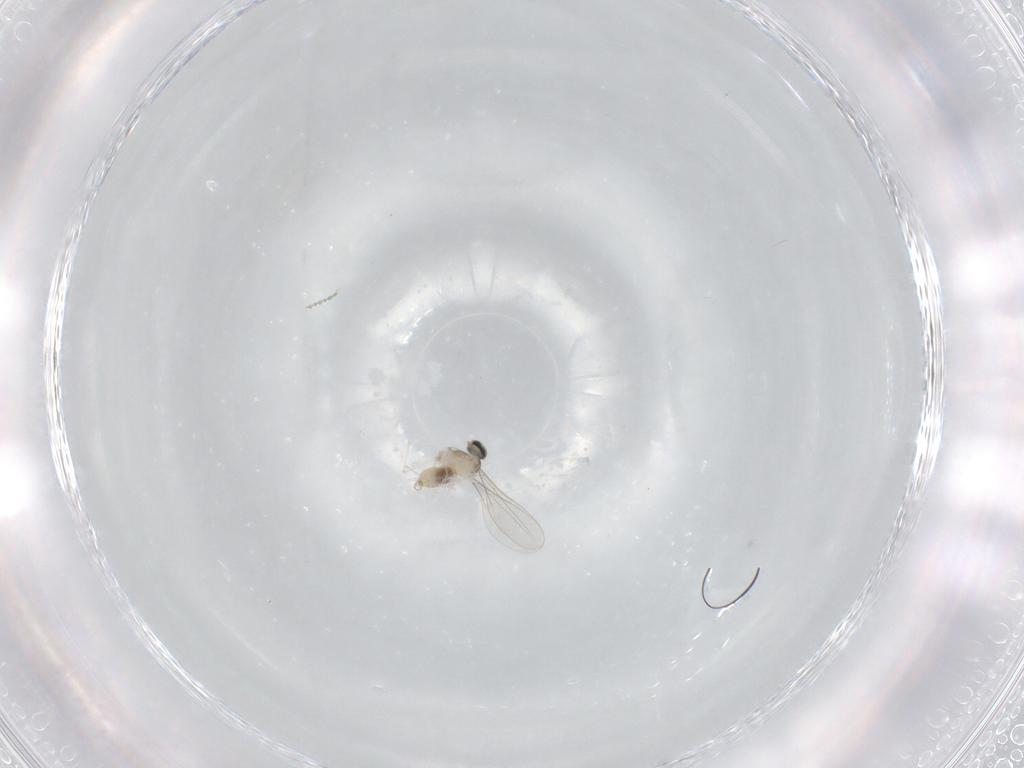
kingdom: Animalia
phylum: Arthropoda
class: Insecta
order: Diptera
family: Cecidomyiidae
